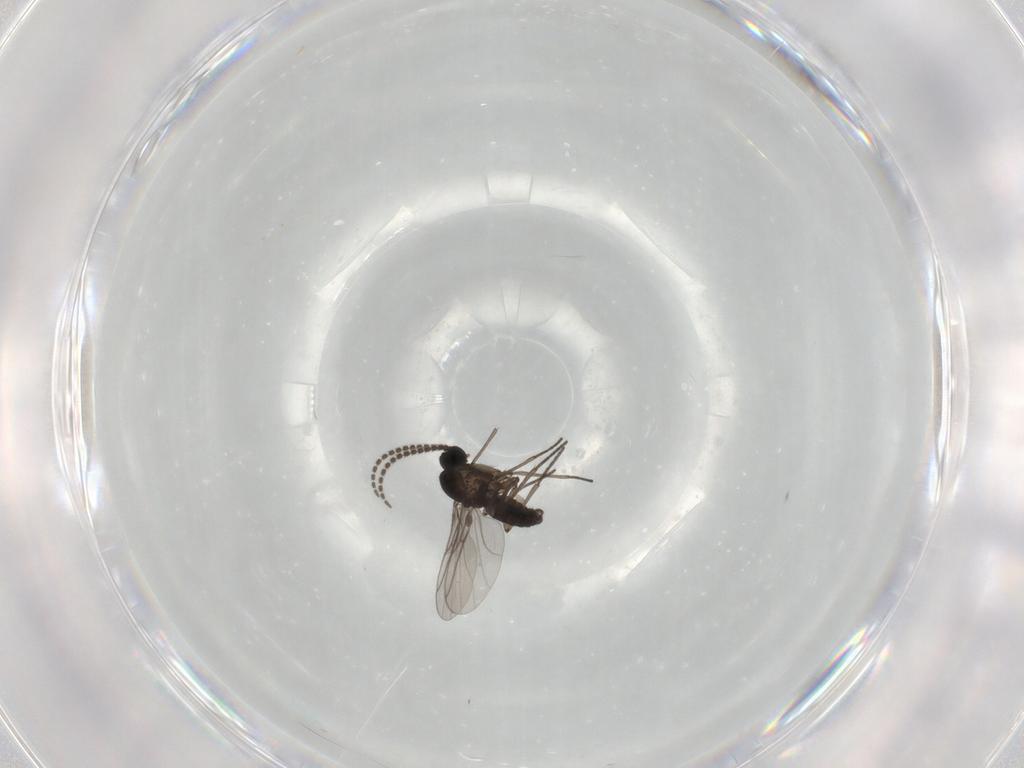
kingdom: Animalia
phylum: Arthropoda
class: Insecta
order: Diptera
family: Sciaridae
